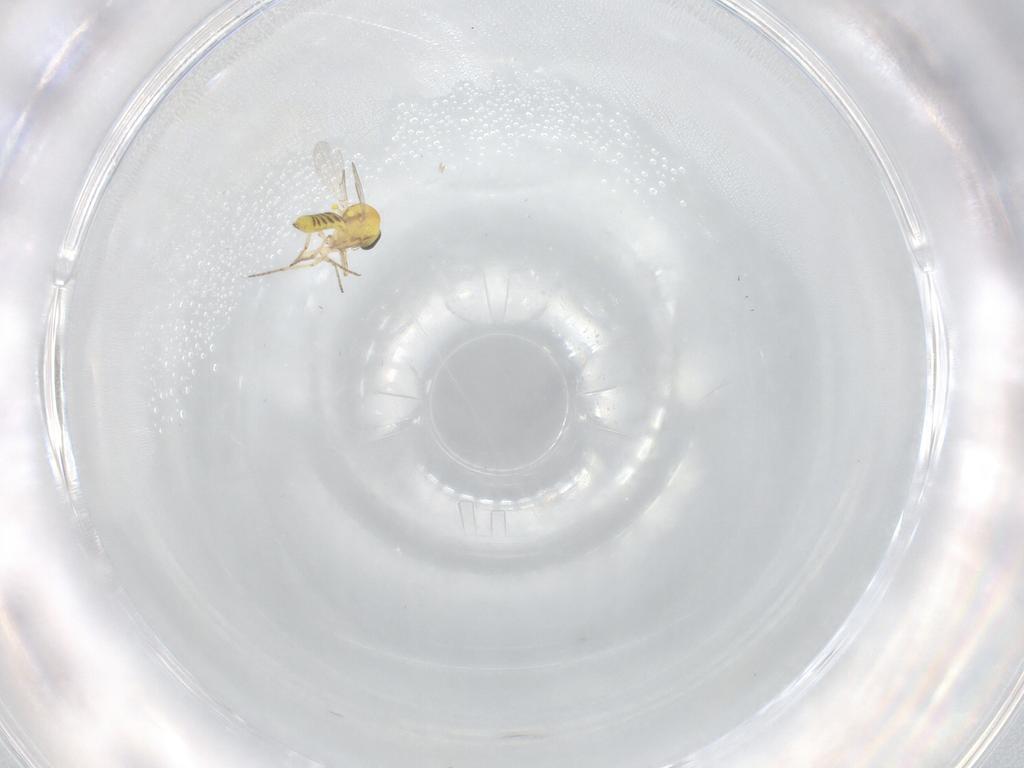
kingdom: Animalia
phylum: Arthropoda
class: Insecta
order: Diptera
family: Ceratopogonidae
